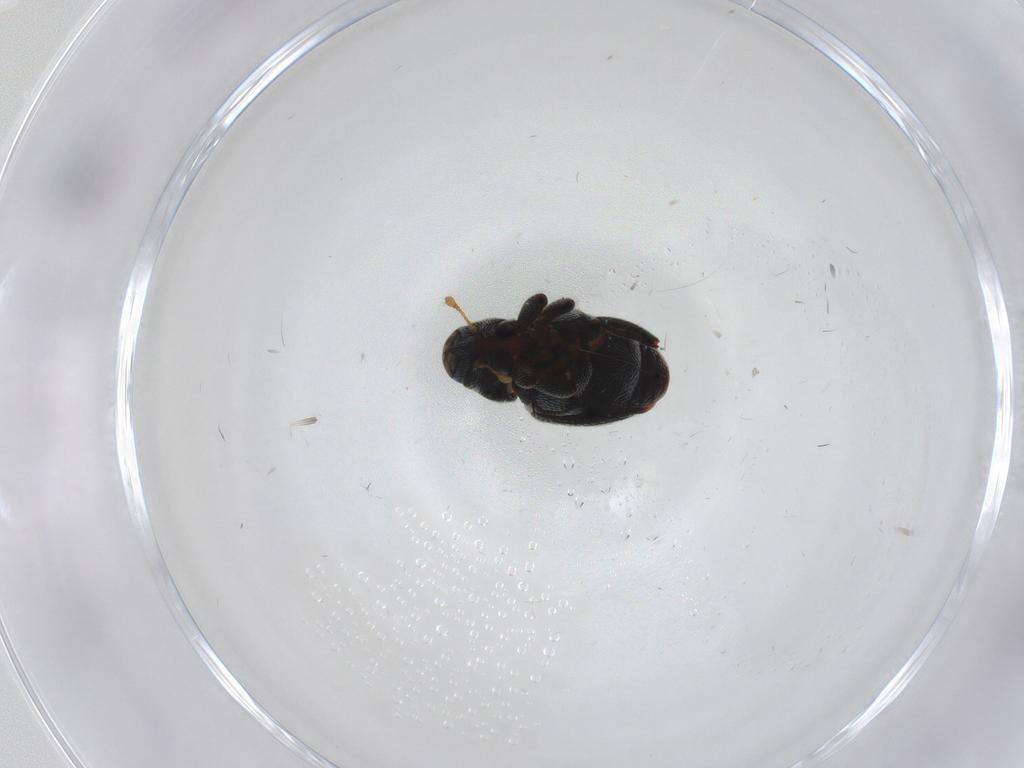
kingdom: Animalia
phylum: Arthropoda
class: Insecta
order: Coleoptera
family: Curculionidae
